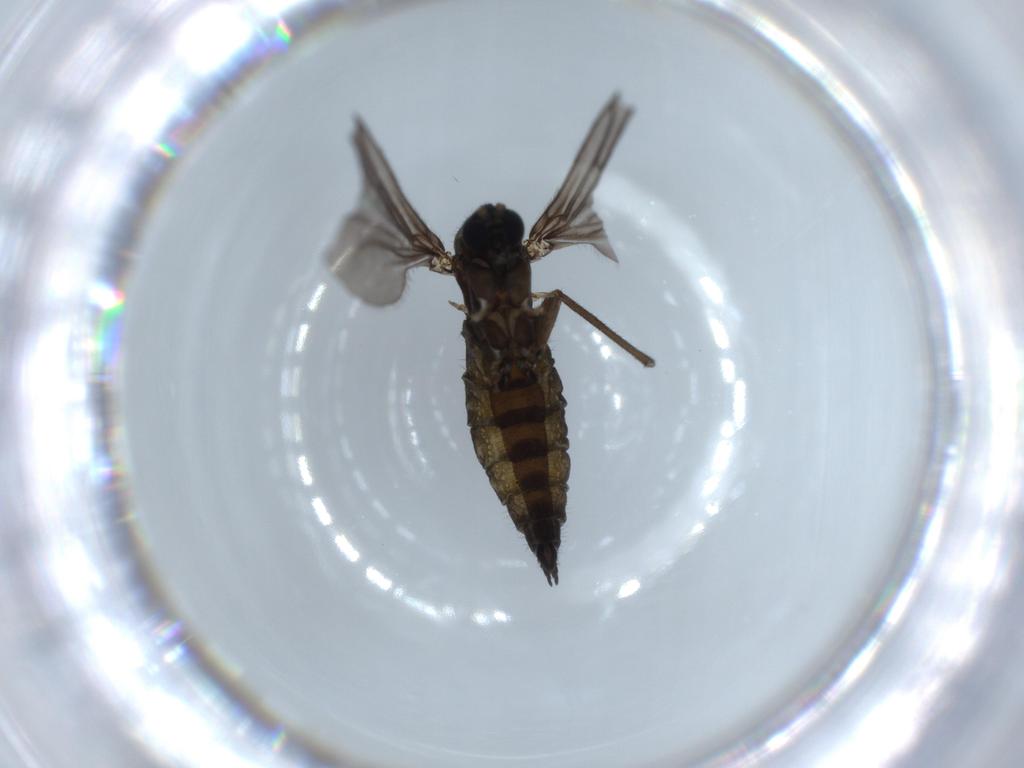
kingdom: Animalia
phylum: Arthropoda
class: Insecta
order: Diptera
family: Sciaridae
